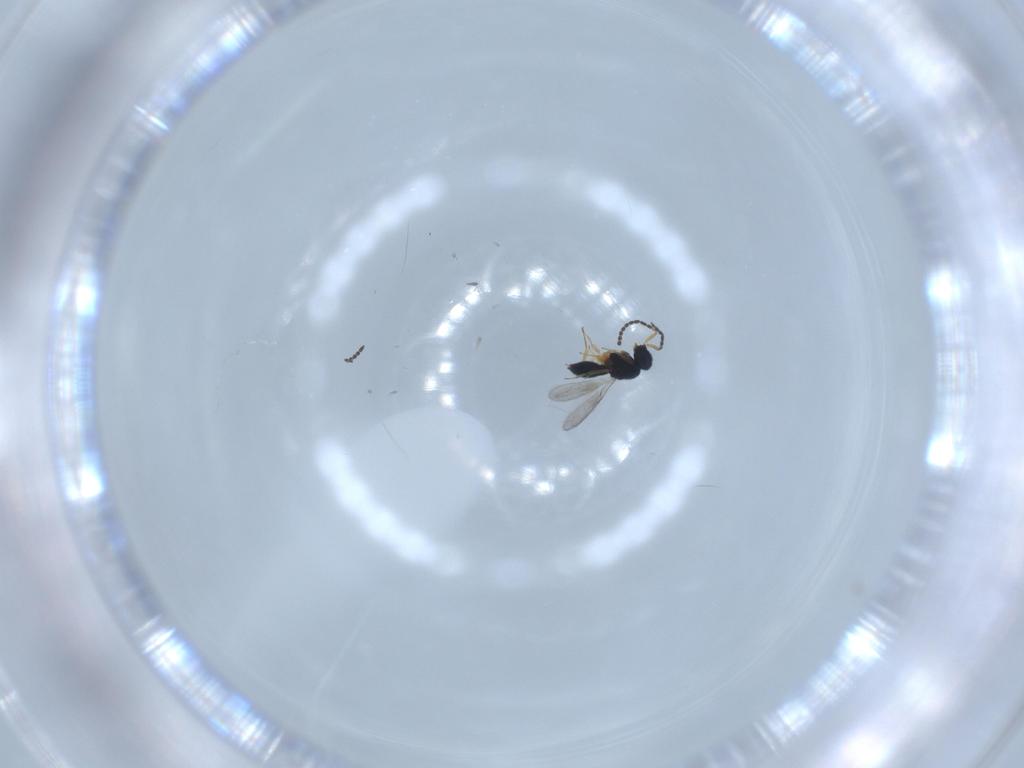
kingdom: Animalia
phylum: Arthropoda
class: Insecta
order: Hymenoptera
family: Scelionidae
